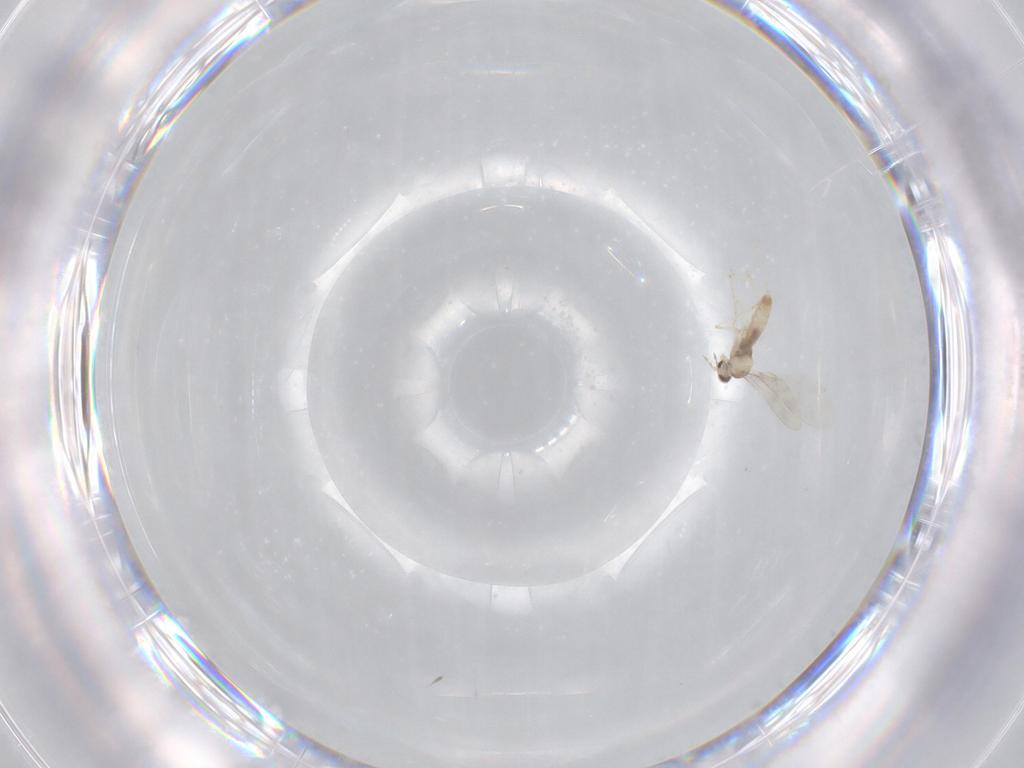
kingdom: Animalia
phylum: Arthropoda
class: Insecta
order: Diptera
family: Cecidomyiidae
